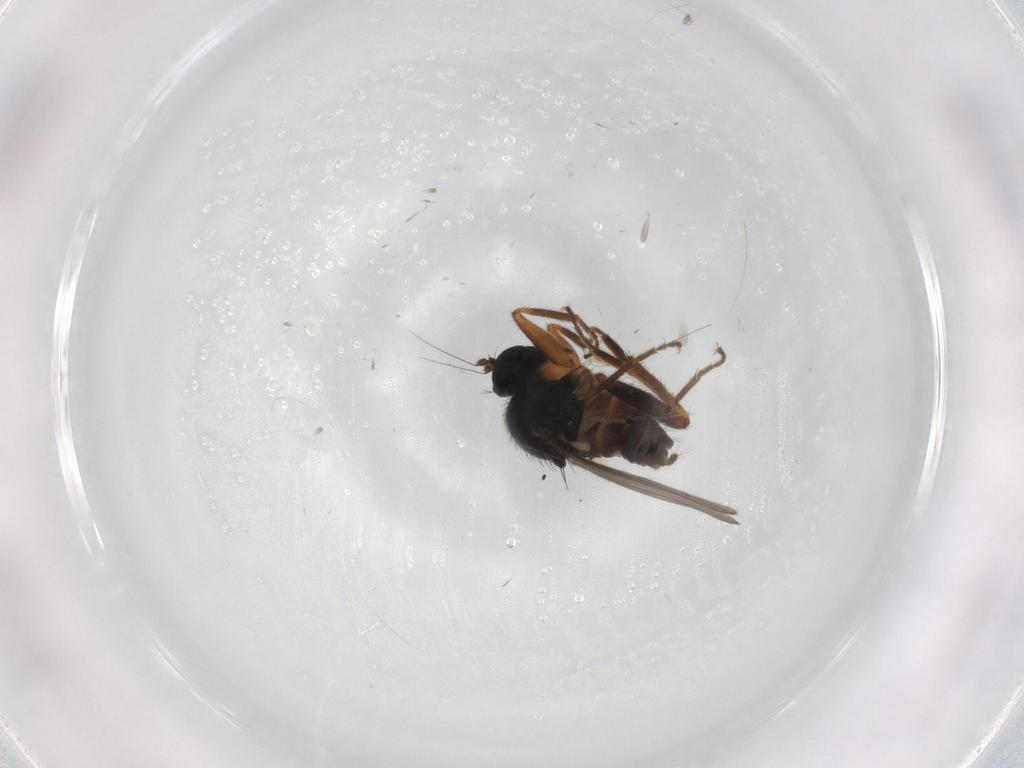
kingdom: Animalia
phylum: Arthropoda
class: Insecta
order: Diptera
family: Hybotidae
